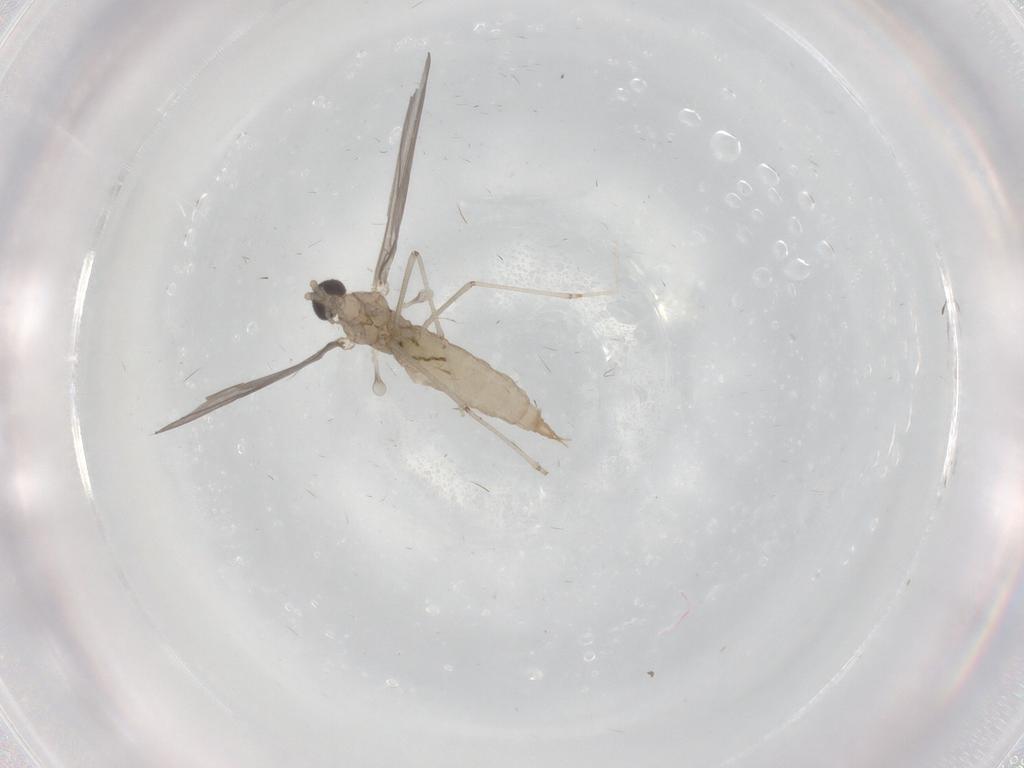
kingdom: Animalia
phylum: Arthropoda
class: Insecta
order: Diptera
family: Cecidomyiidae
